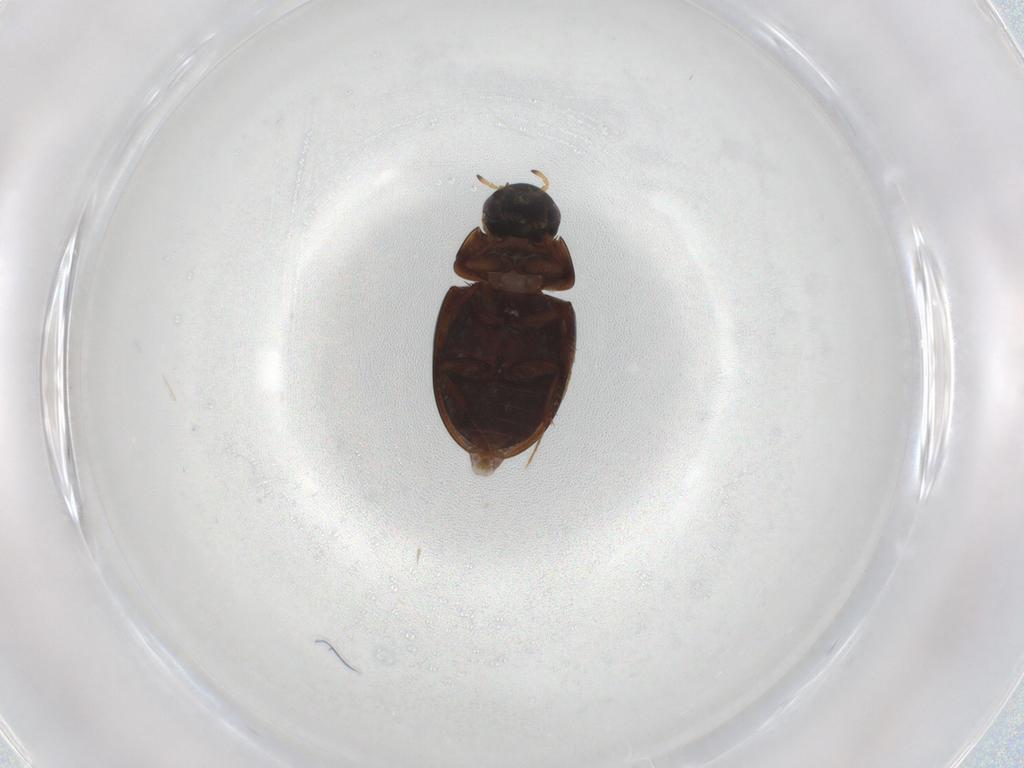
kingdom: Animalia
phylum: Arthropoda
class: Insecta
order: Coleoptera
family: Hydrophilidae
